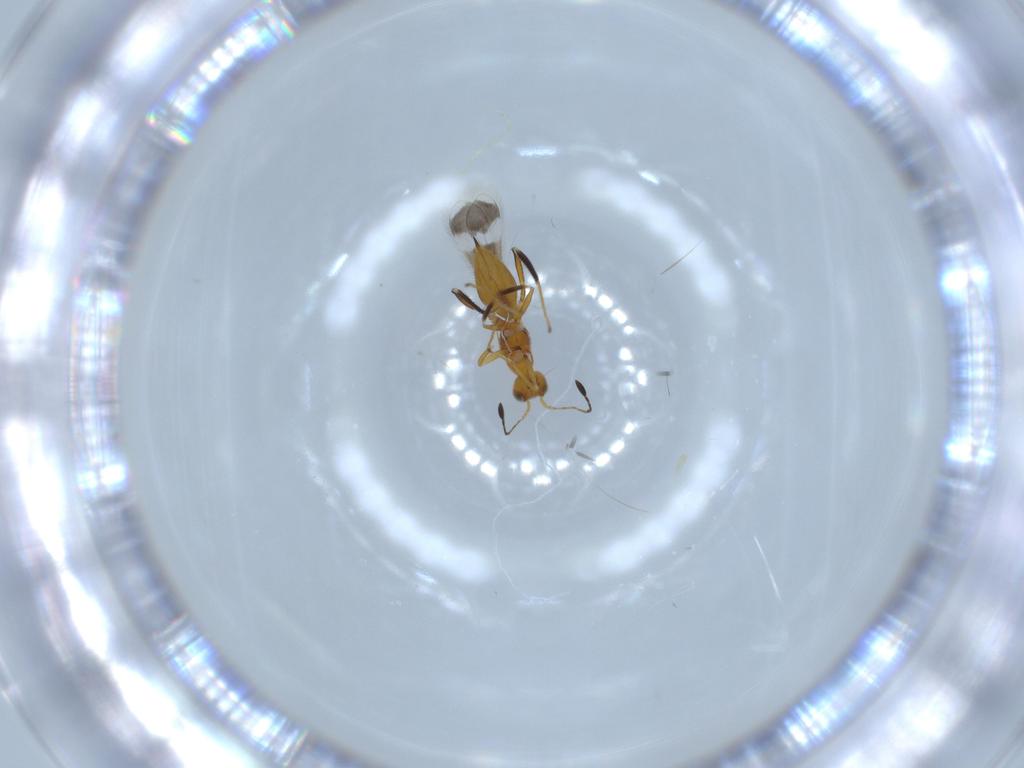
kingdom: Animalia
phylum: Arthropoda
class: Insecta
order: Hymenoptera
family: Mymaridae
